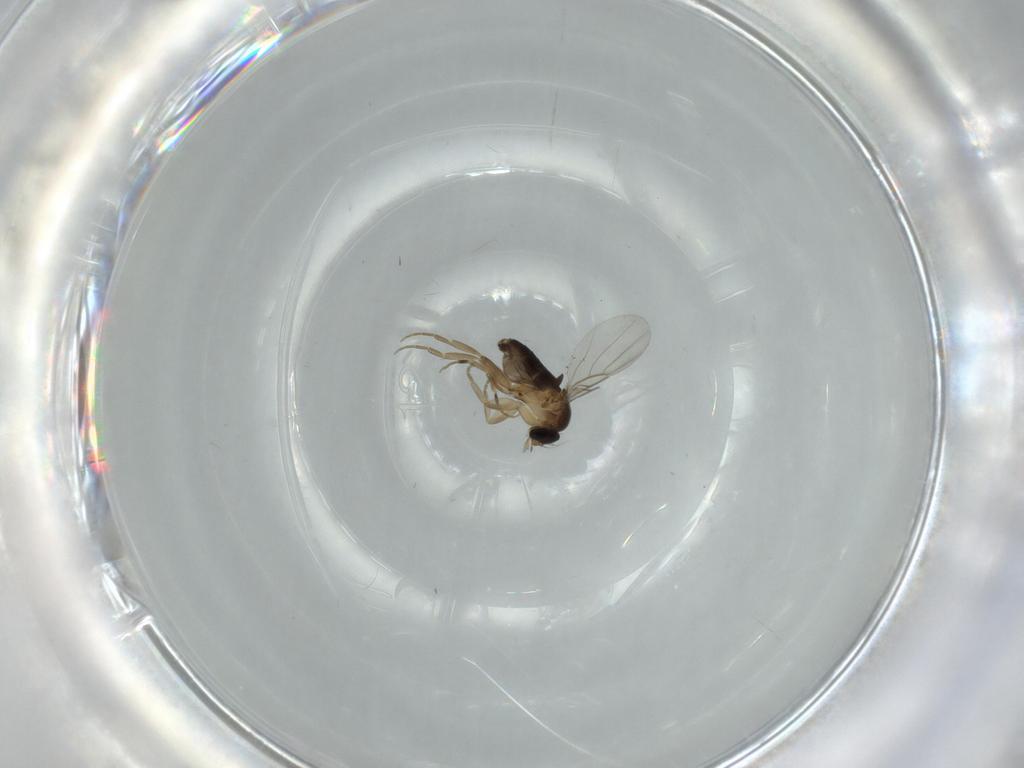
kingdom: Animalia
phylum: Arthropoda
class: Insecta
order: Diptera
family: Phoridae
